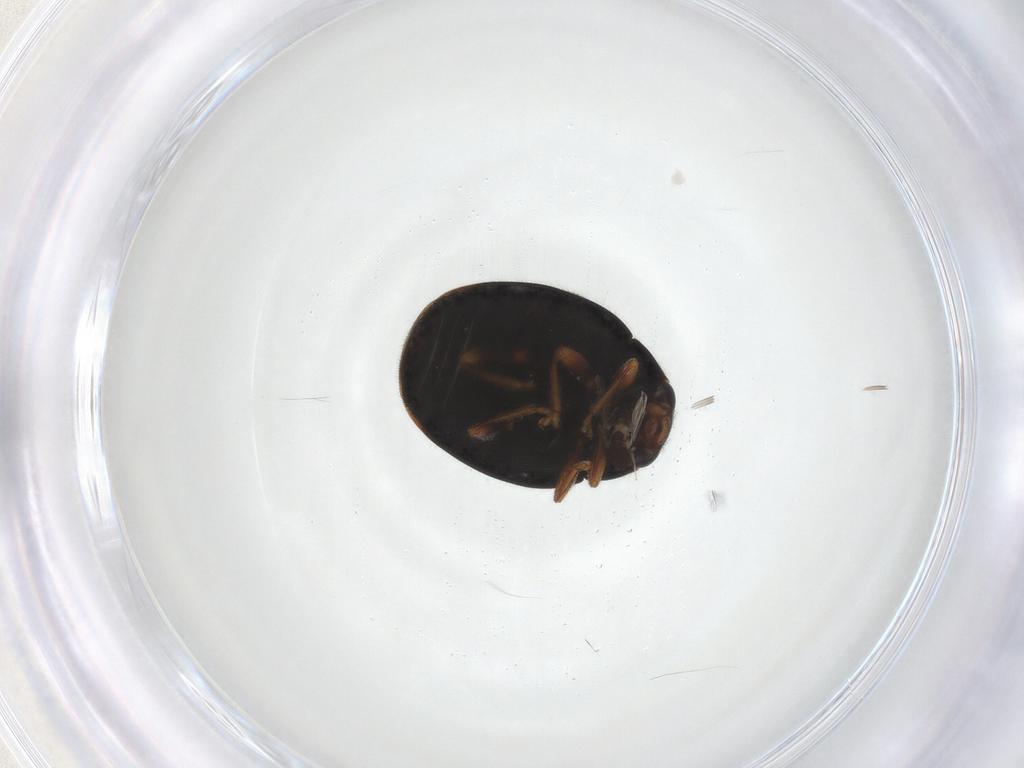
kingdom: Animalia
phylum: Arthropoda
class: Insecta
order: Coleoptera
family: Coccinellidae
